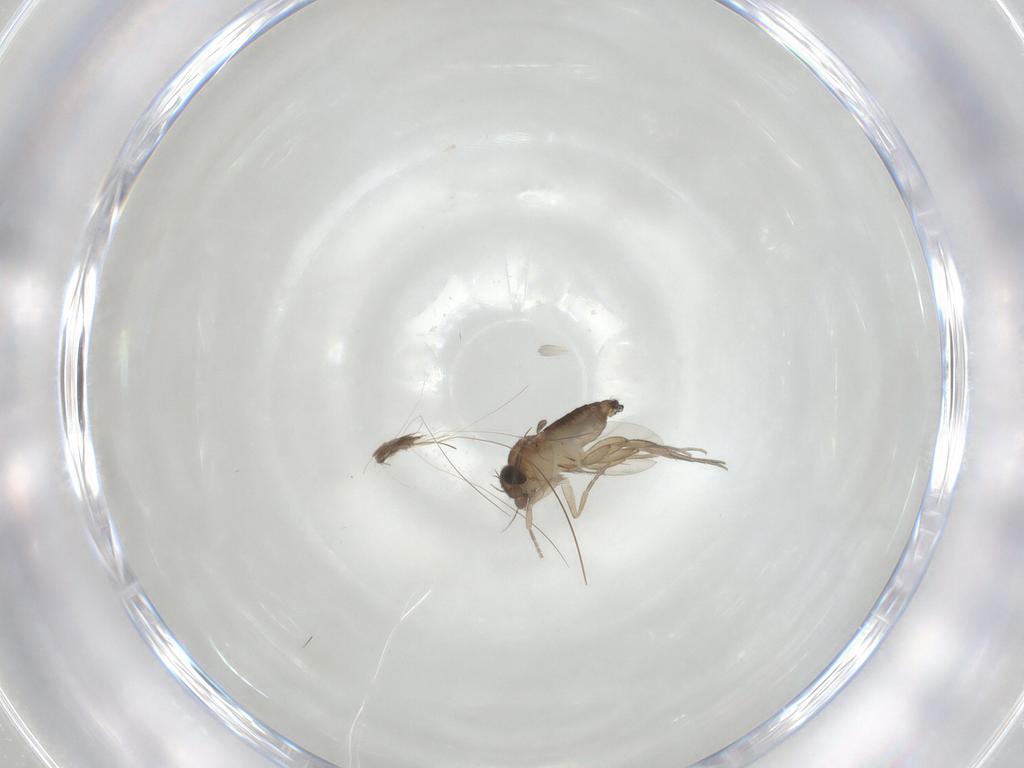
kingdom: Animalia
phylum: Arthropoda
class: Insecta
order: Diptera
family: Phoridae
